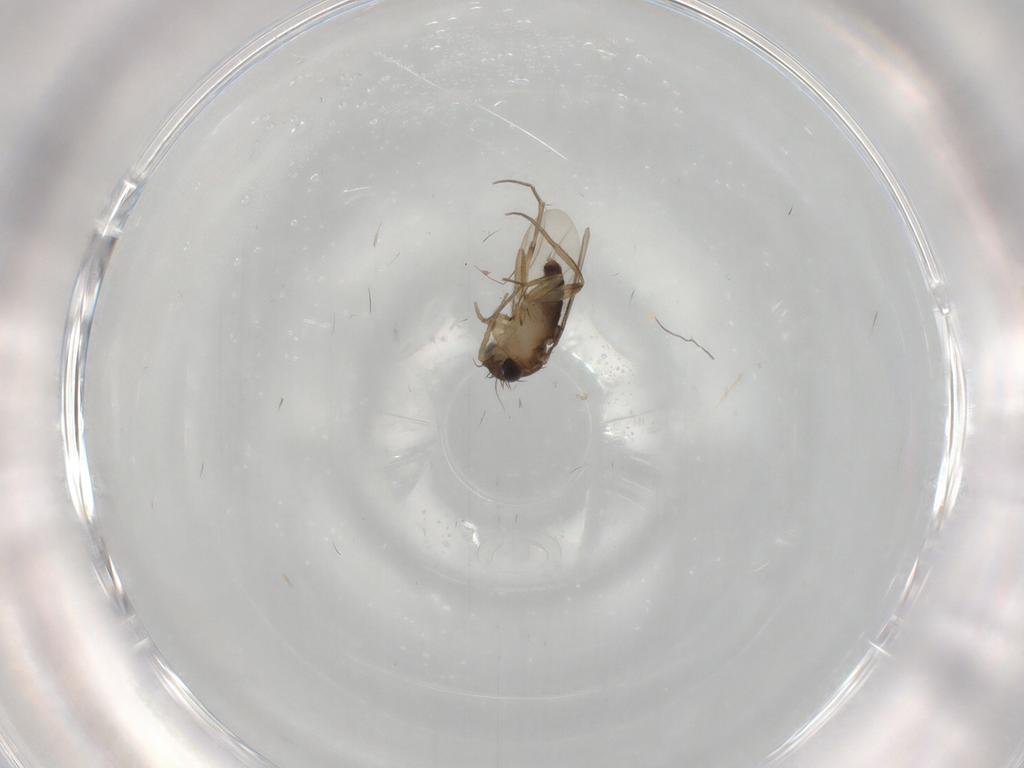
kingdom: Animalia
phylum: Arthropoda
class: Insecta
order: Diptera
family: Phoridae
